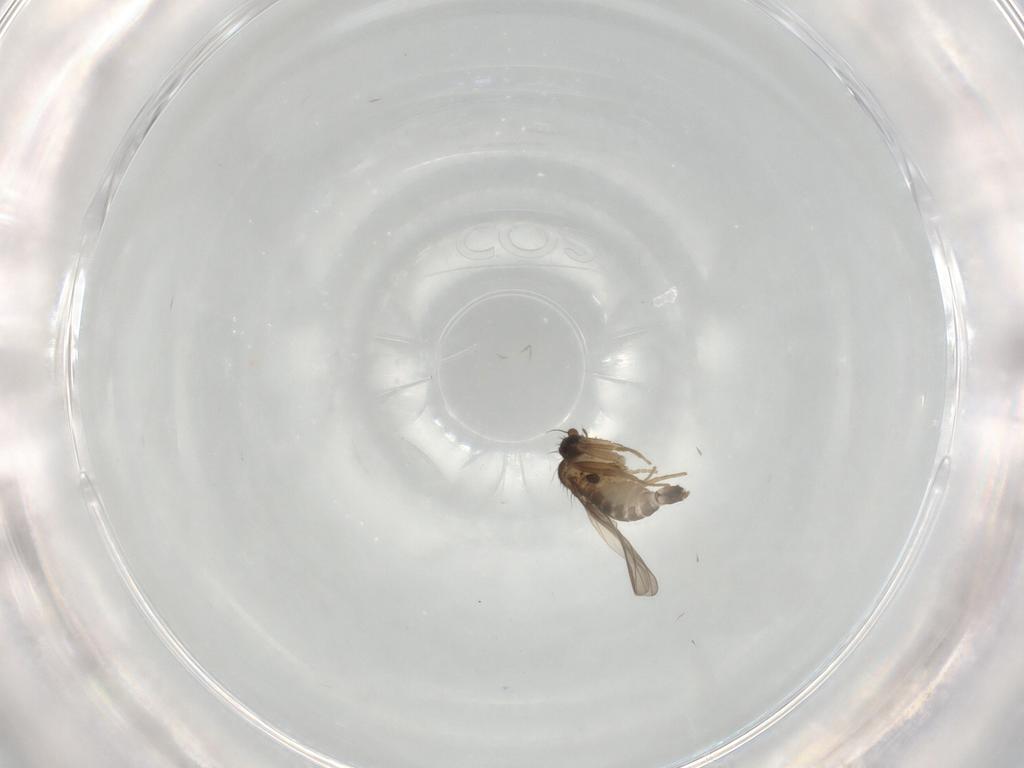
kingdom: Animalia
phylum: Arthropoda
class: Insecta
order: Diptera
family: Phoridae
